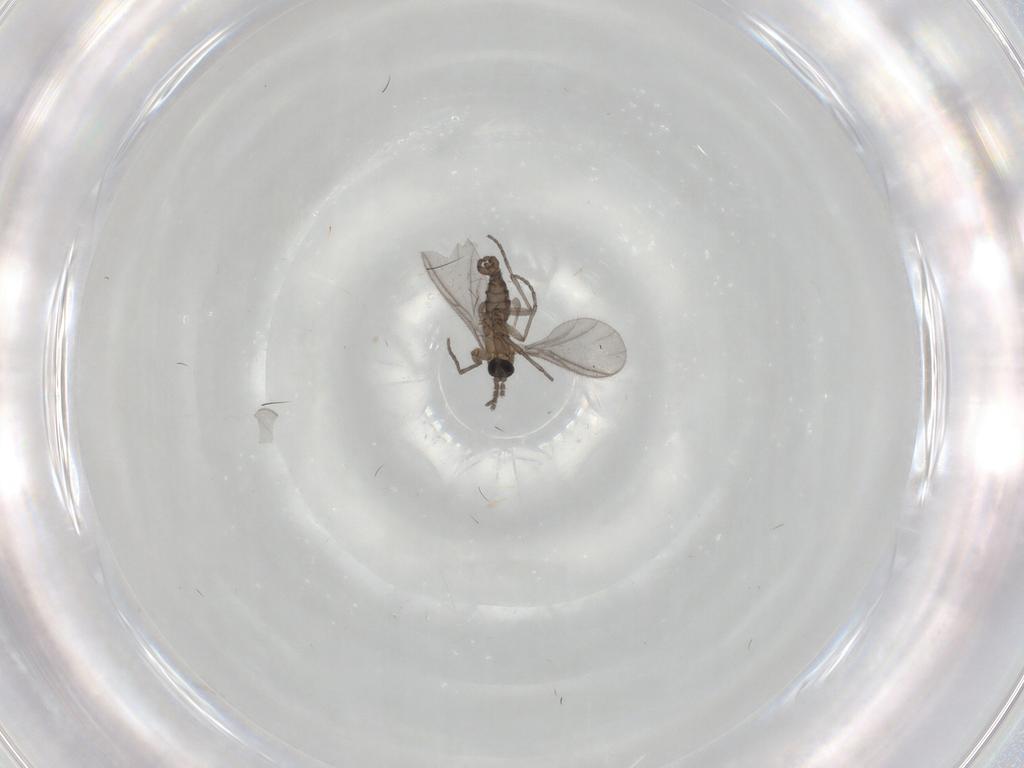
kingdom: Animalia
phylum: Arthropoda
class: Insecta
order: Diptera
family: Sciaridae
